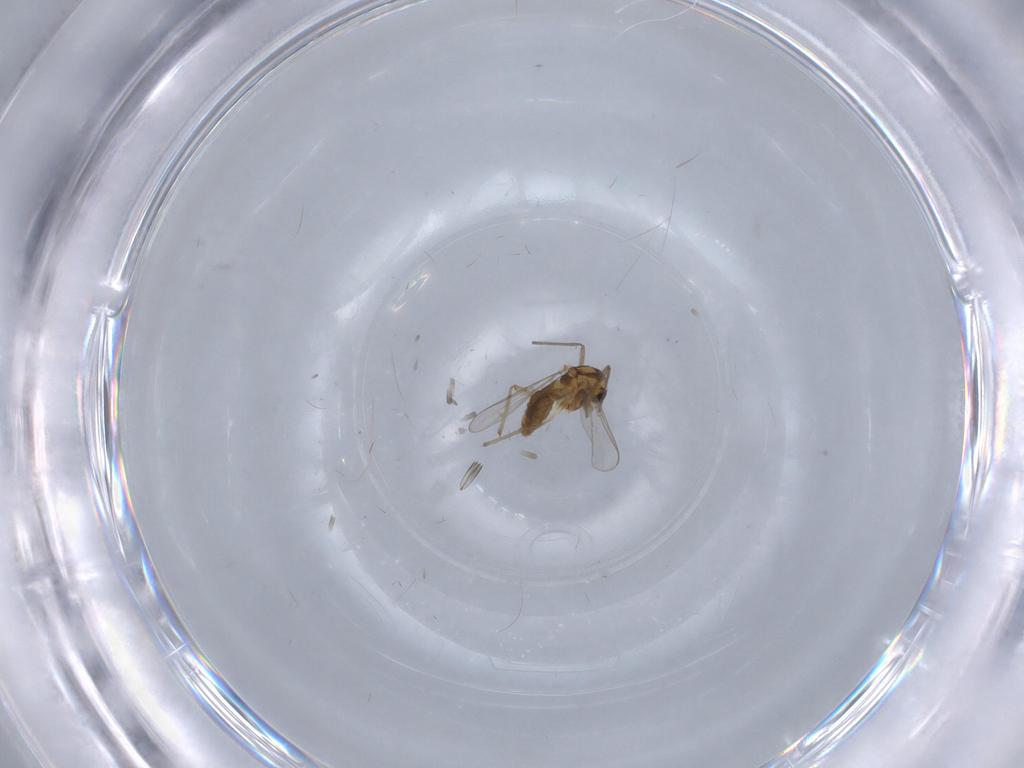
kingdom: Animalia
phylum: Arthropoda
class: Insecta
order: Diptera
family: Chironomidae
